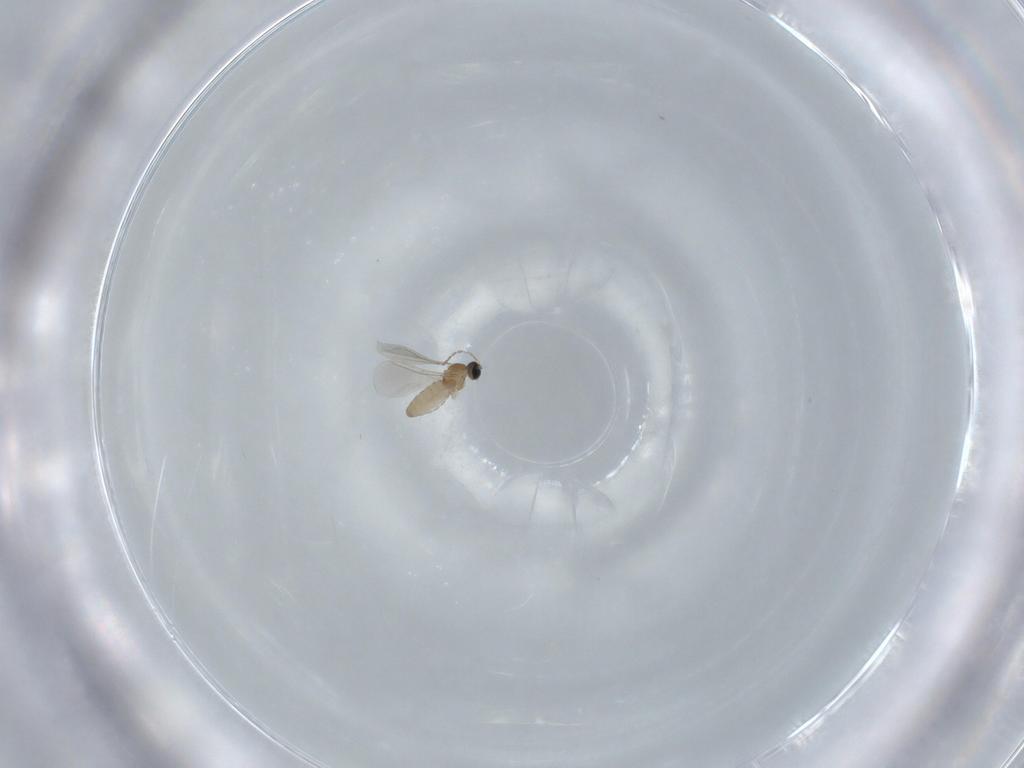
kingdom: Animalia
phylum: Arthropoda
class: Insecta
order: Diptera
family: Cecidomyiidae
